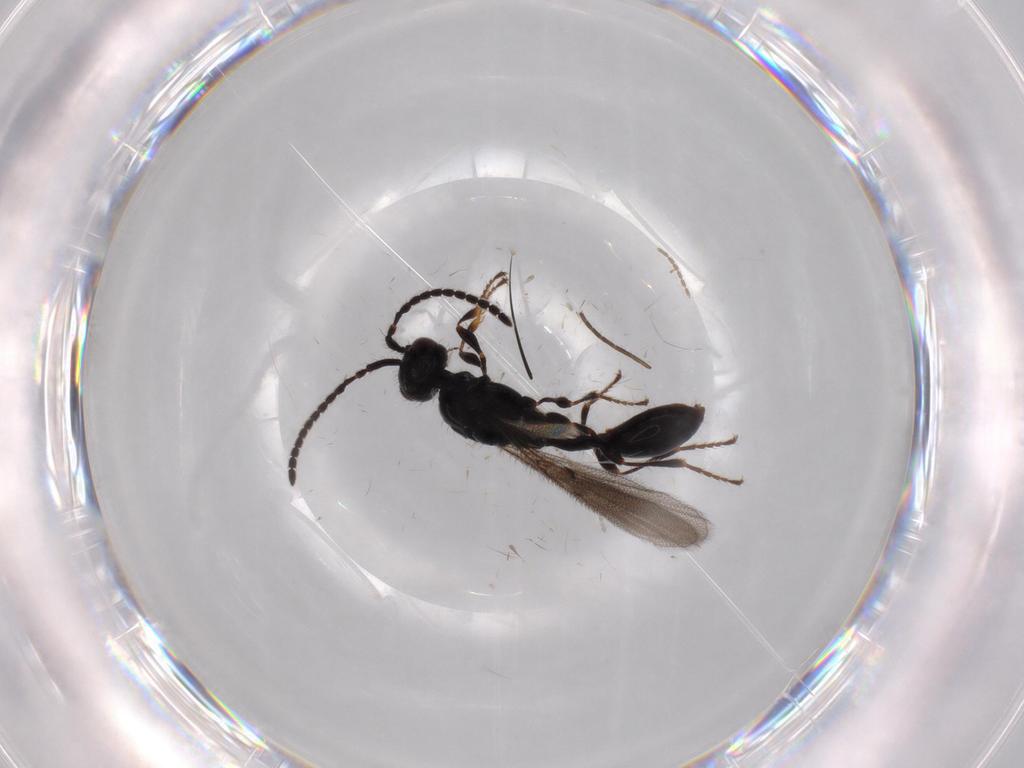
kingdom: Animalia
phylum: Arthropoda
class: Insecta
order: Hymenoptera
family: Diapriidae
